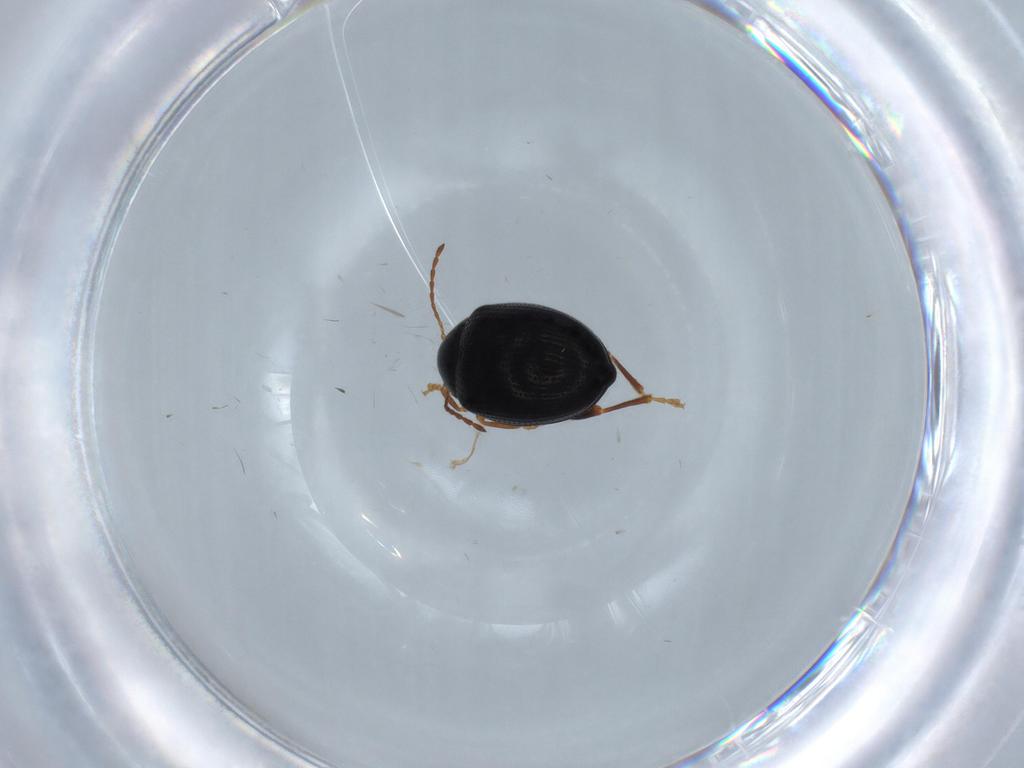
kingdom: Animalia
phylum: Arthropoda
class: Insecta
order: Coleoptera
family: Chrysomelidae
